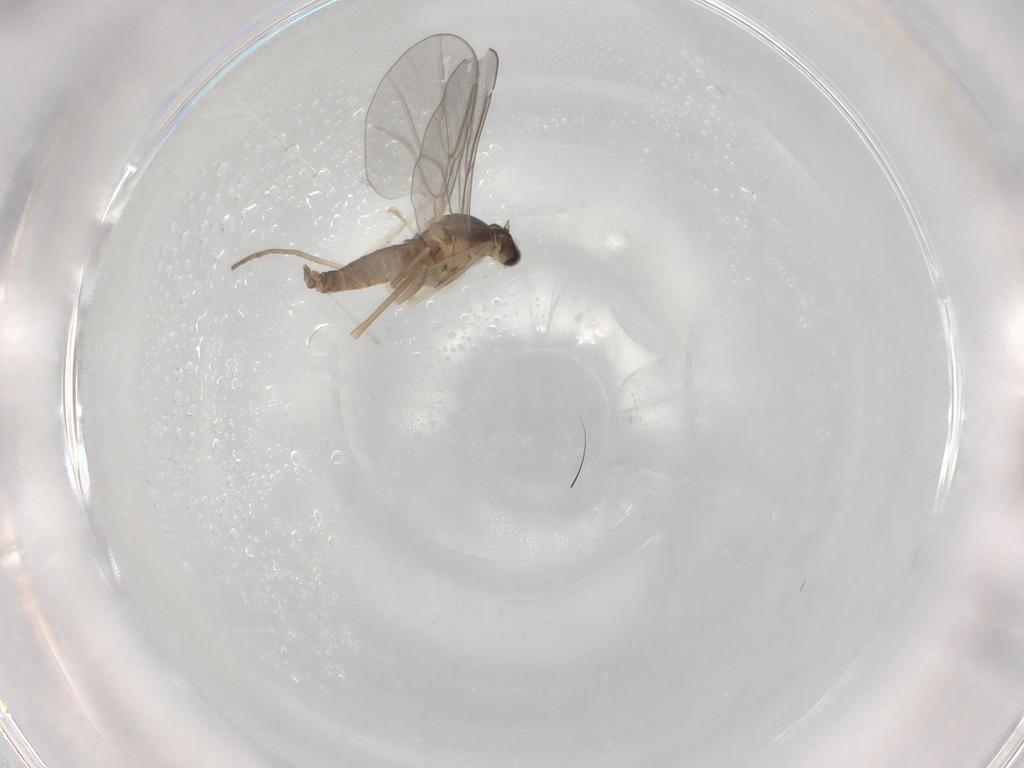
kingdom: Animalia
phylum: Arthropoda
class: Insecta
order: Diptera
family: Cecidomyiidae
